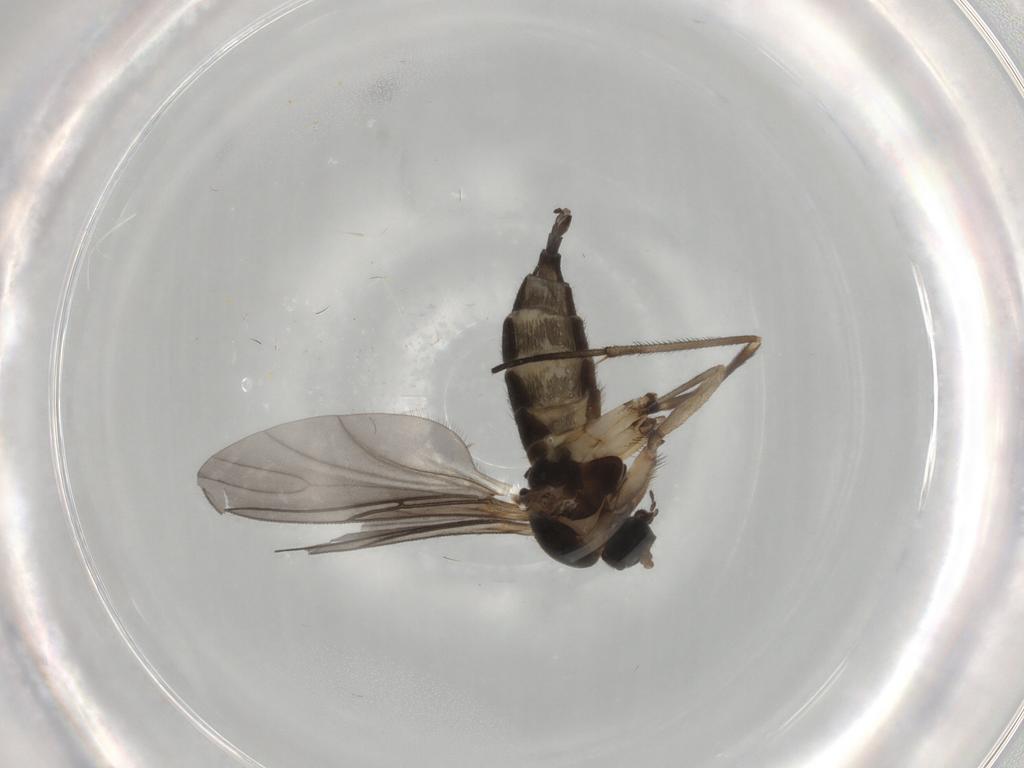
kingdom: Animalia
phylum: Arthropoda
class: Insecta
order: Diptera
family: Sciaridae
